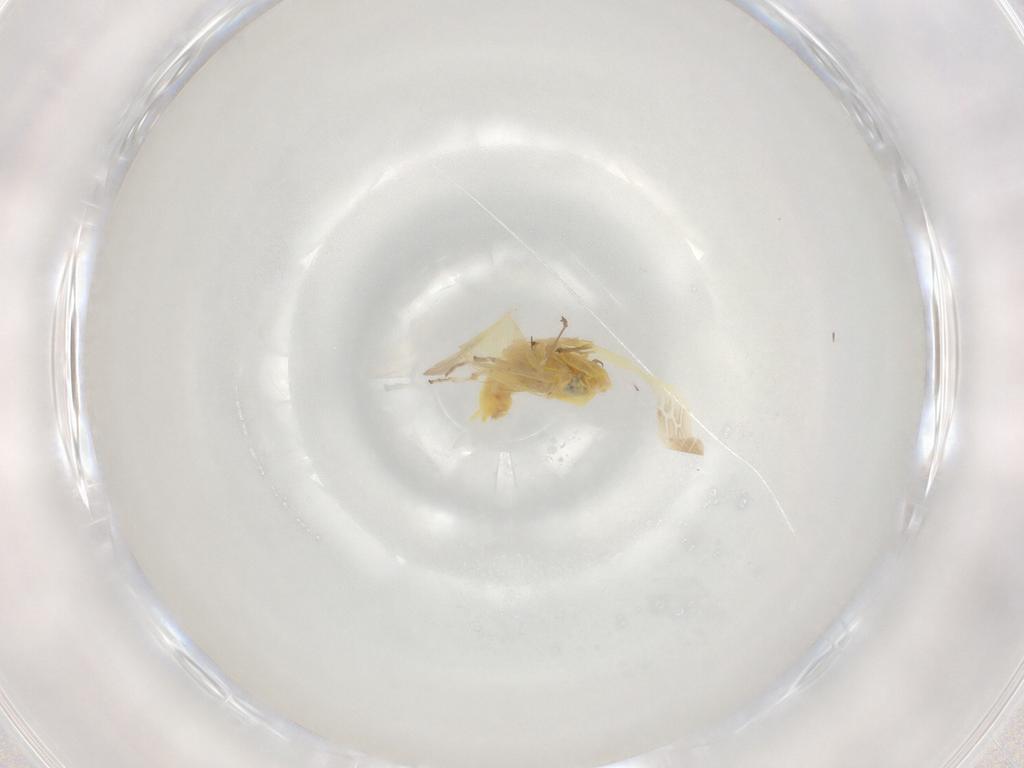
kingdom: Animalia
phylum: Arthropoda
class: Insecta
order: Hemiptera
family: Cicadellidae
